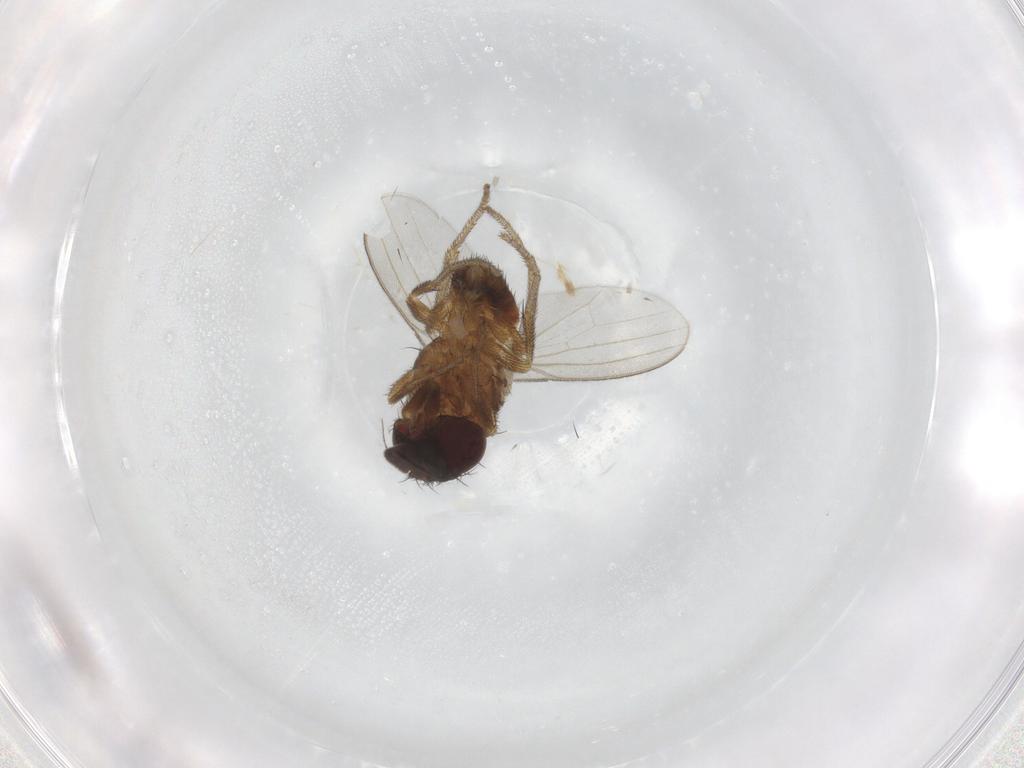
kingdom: Animalia
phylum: Arthropoda
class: Insecta
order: Diptera
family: Milichiidae
